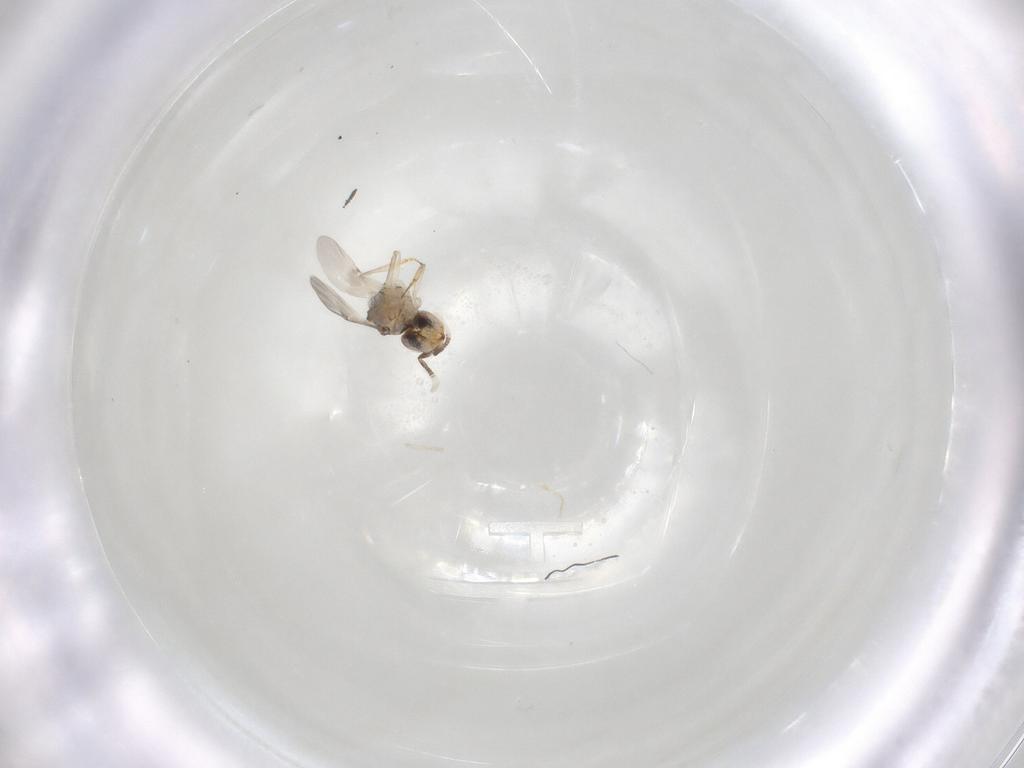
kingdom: Animalia
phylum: Arthropoda
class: Insecta
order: Hymenoptera
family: Encyrtidae
